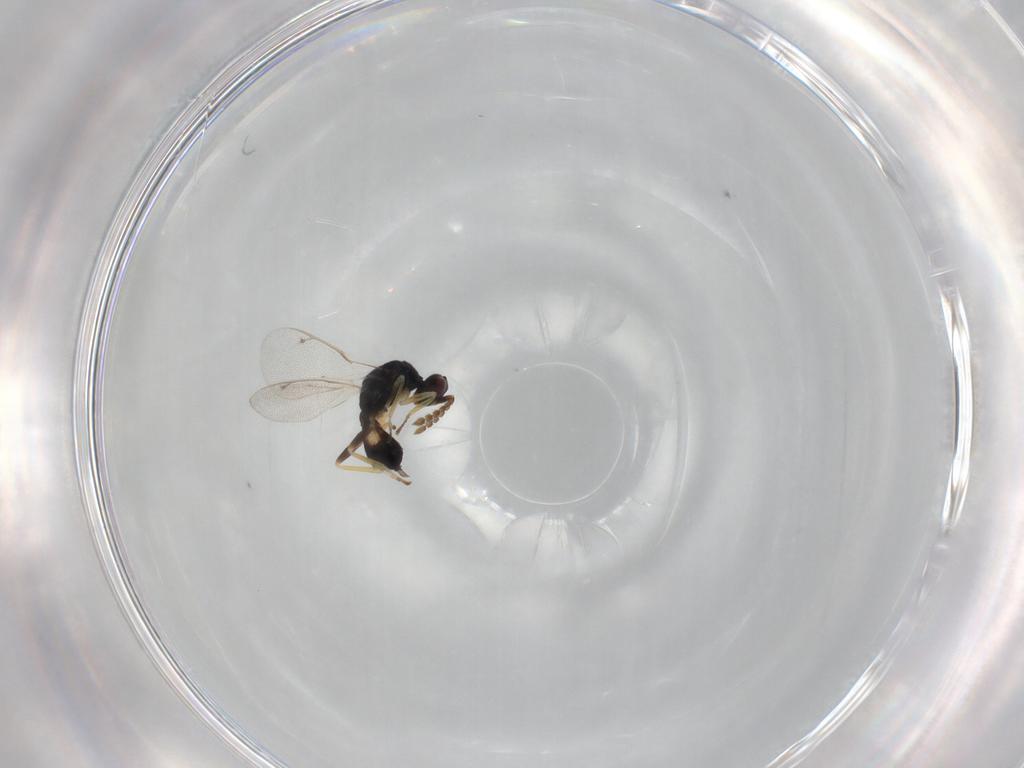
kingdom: Animalia
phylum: Arthropoda
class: Insecta
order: Hymenoptera
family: Eulophidae
